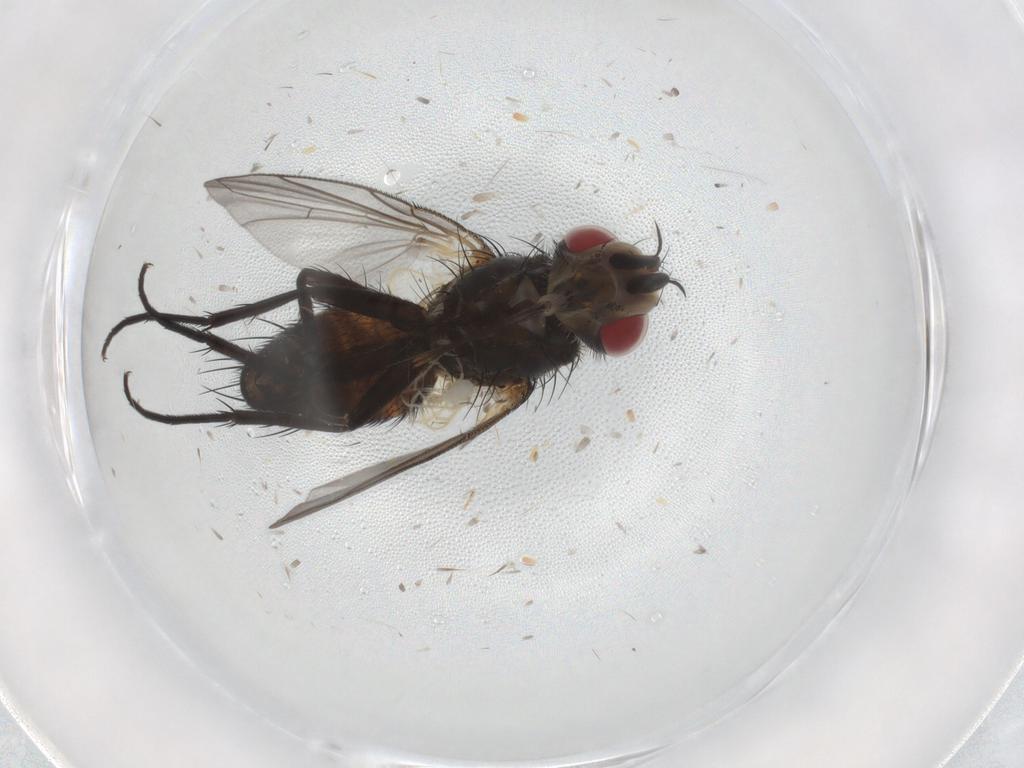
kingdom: Animalia
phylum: Arthropoda
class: Insecta
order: Diptera
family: Tachinidae
